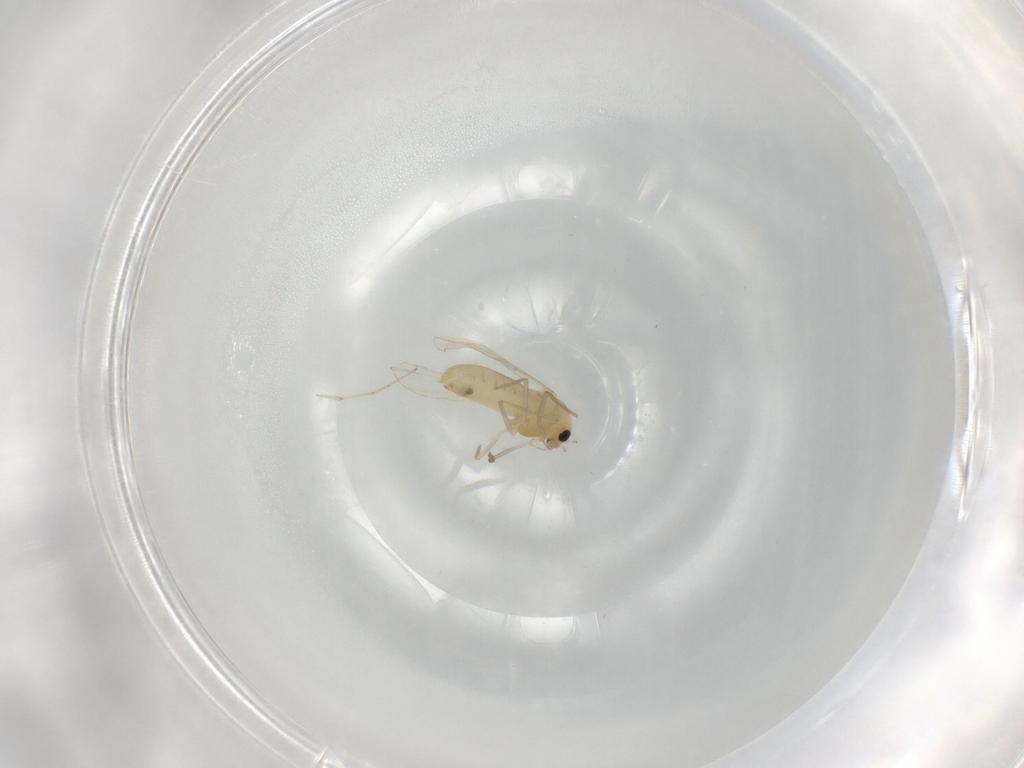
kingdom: Animalia
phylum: Arthropoda
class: Insecta
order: Diptera
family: Chironomidae
